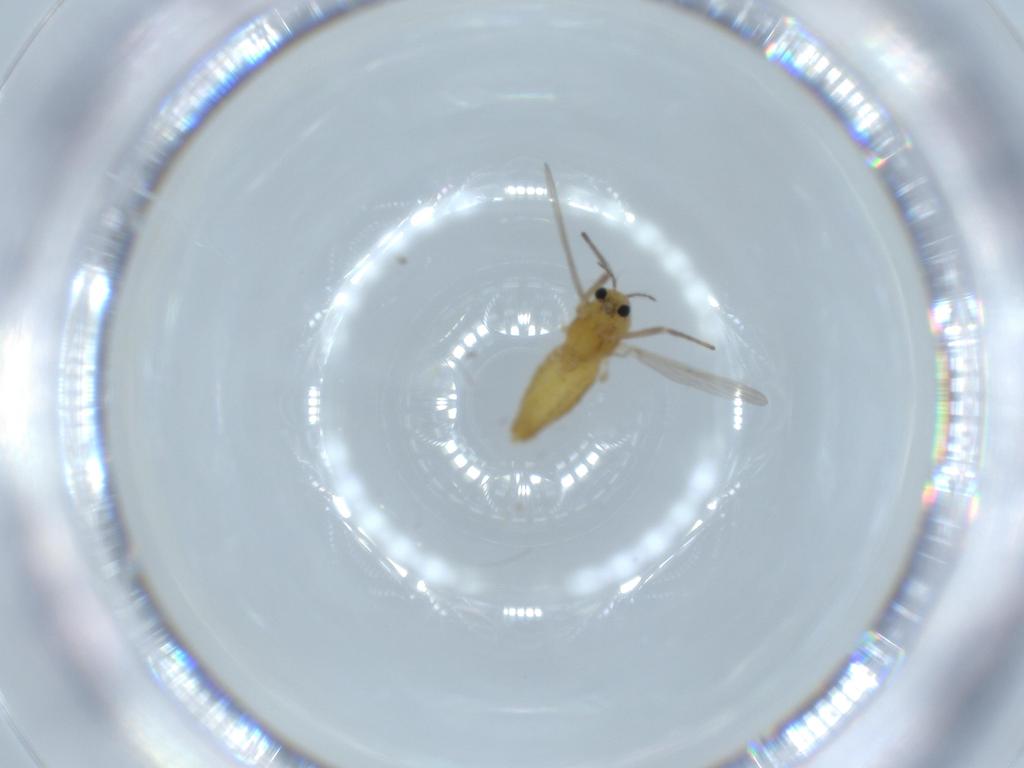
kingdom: Animalia
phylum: Arthropoda
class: Insecta
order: Diptera
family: Chironomidae
